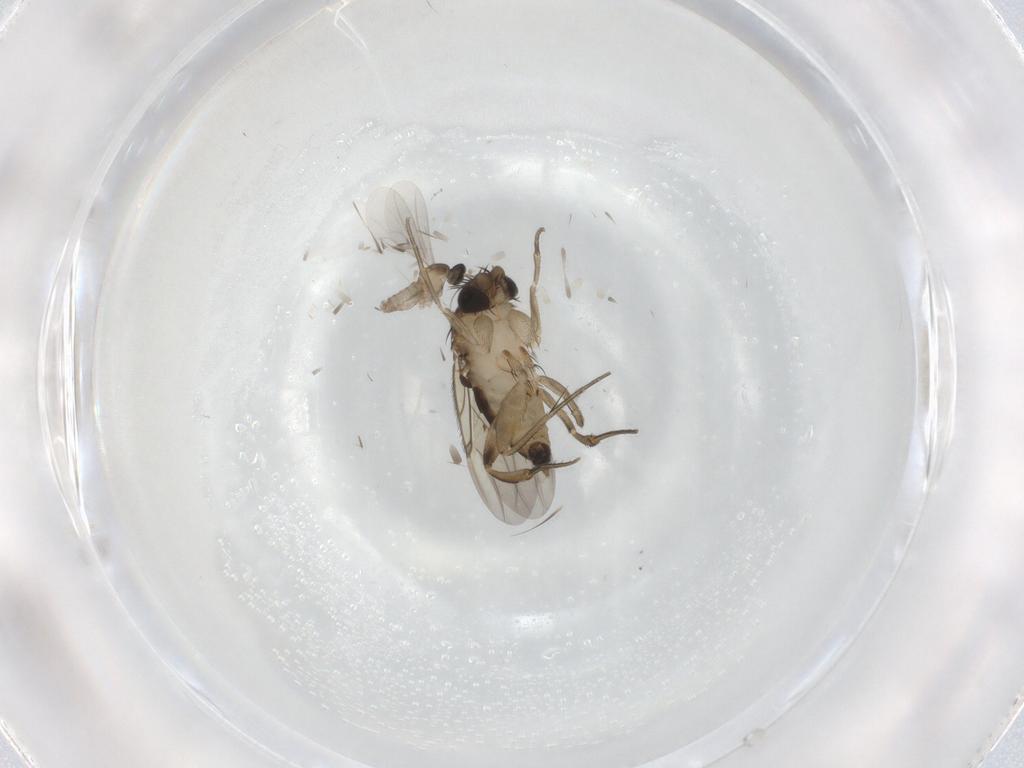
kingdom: Animalia
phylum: Arthropoda
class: Insecta
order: Diptera
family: Phoridae
